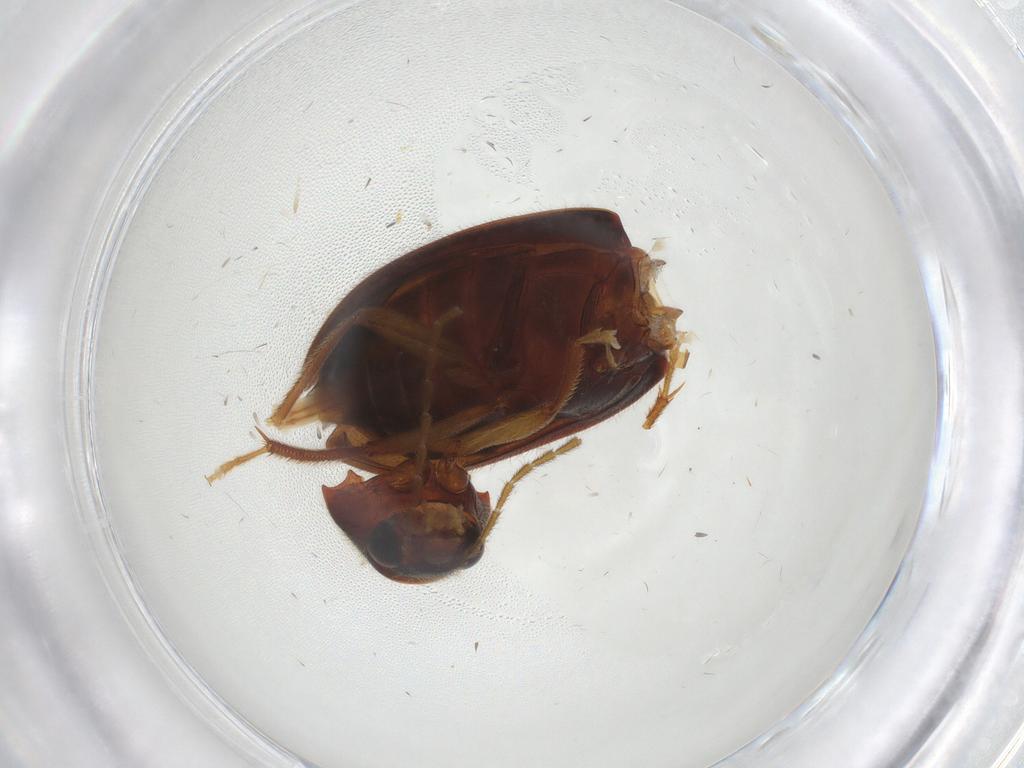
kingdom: Animalia
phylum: Arthropoda
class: Insecta
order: Coleoptera
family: Ptilodactylidae
